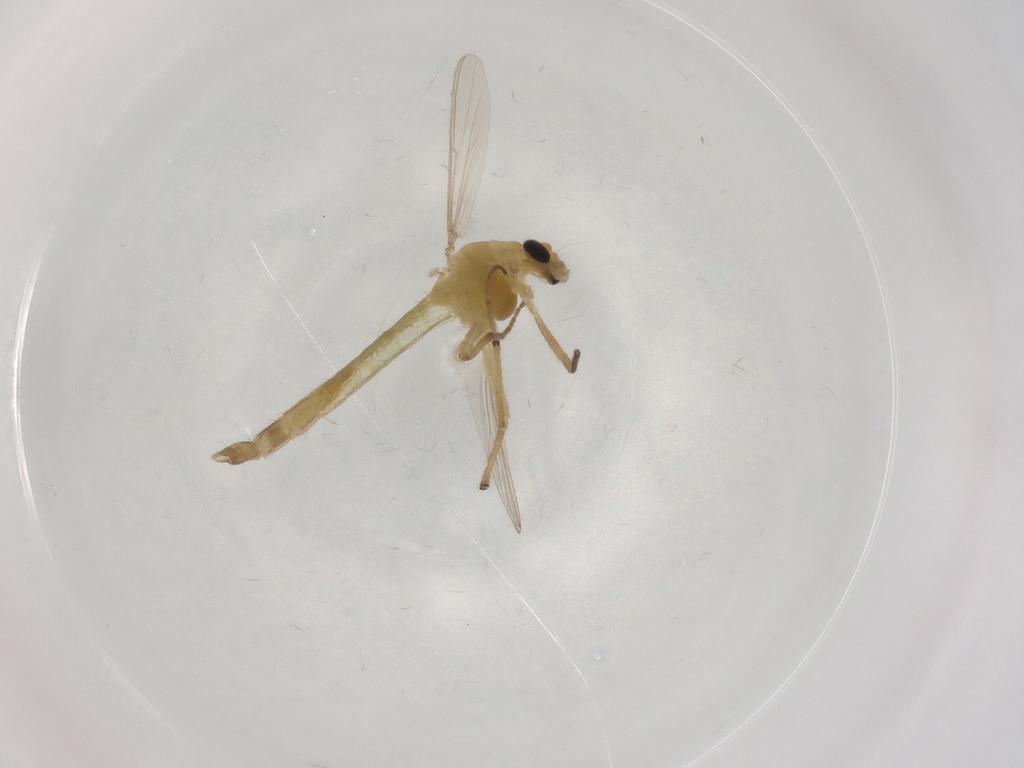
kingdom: Animalia
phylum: Arthropoda
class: Insecta
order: Diptera
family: Chironomidae
